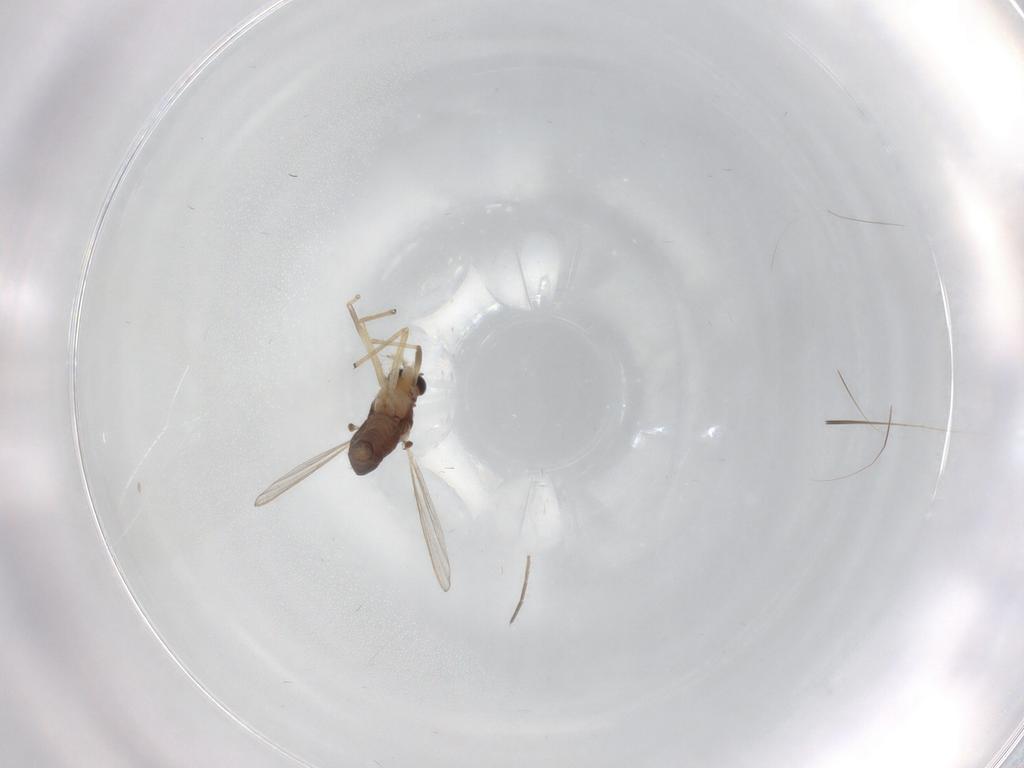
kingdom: Animalia
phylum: Arthropoda
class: Insecta
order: Diptera
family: Chironomidae
